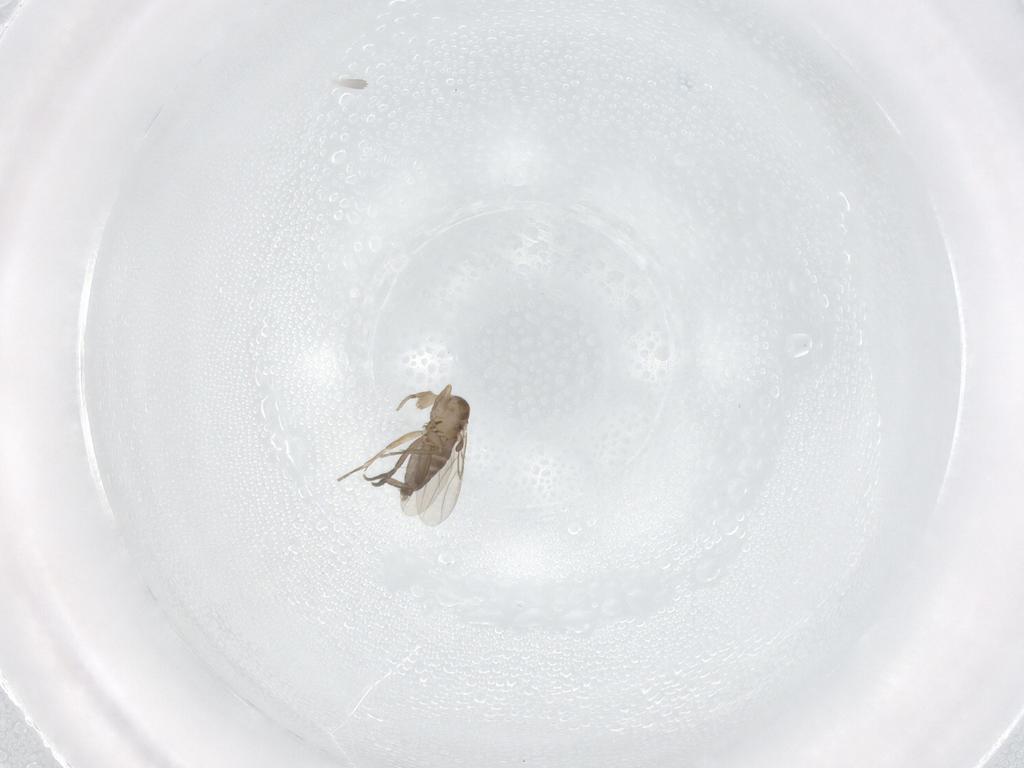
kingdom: Animalia
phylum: Arthropoda
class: Insecta
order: Diptera
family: Phoridae
